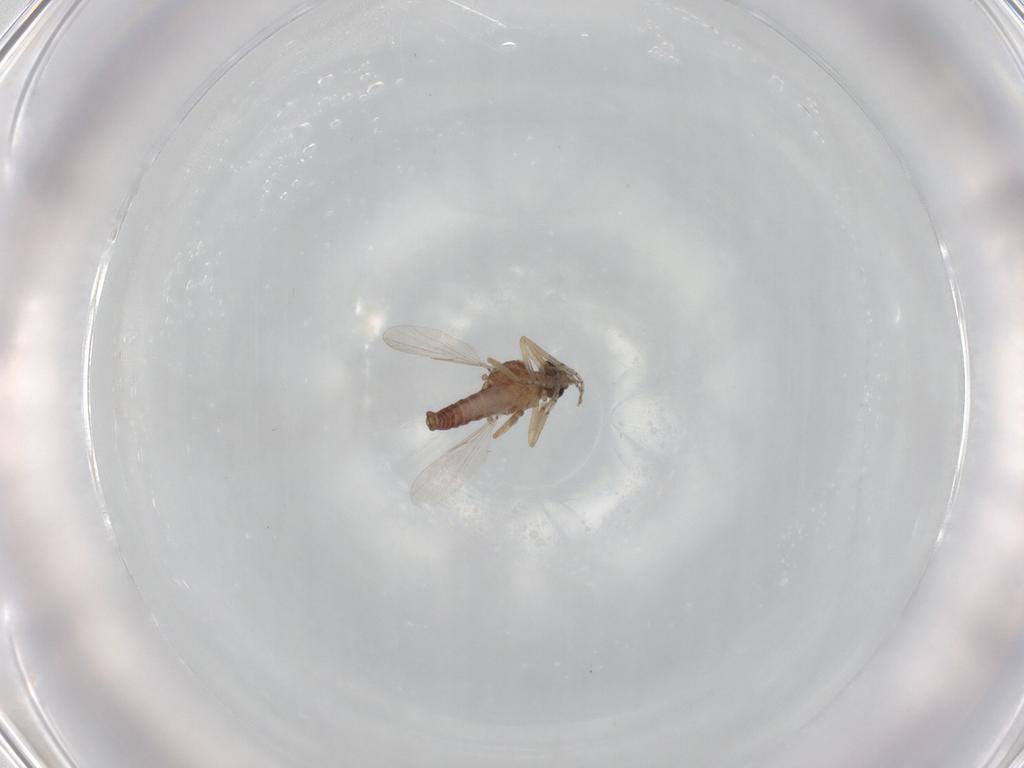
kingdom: Animalia
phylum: Arthropoda
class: Insecta
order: Diptera
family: Ceratopogonidae
